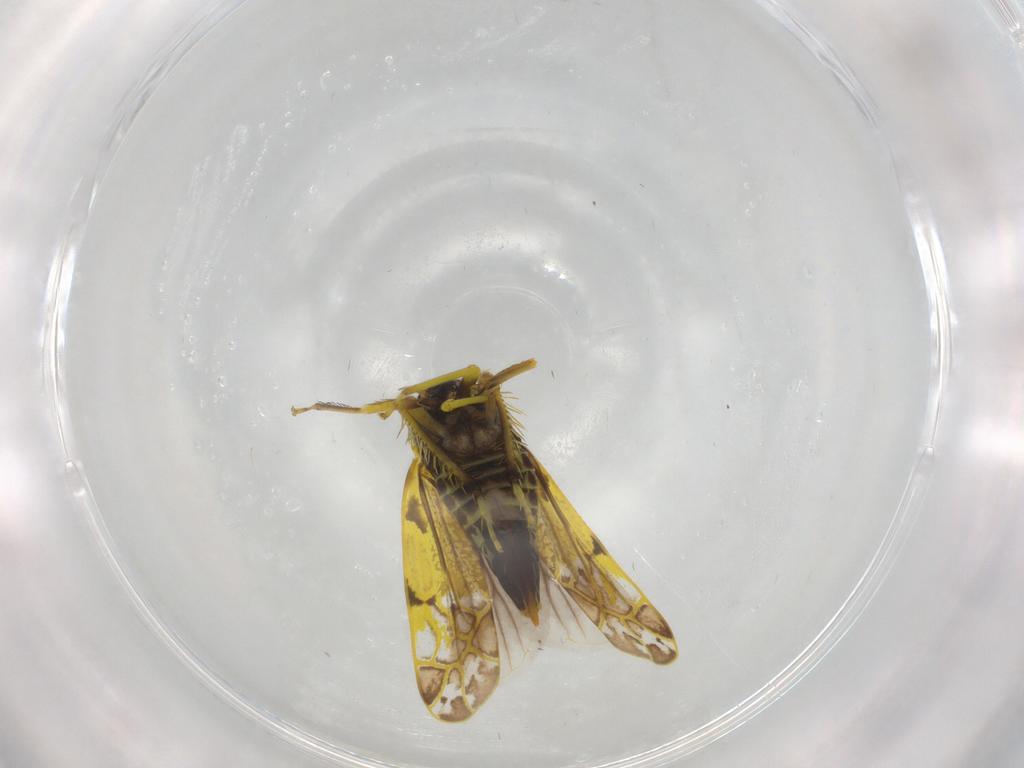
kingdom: Animalia
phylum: Arthropoda
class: Insecta
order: Hemiptera
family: Cicadellidae
